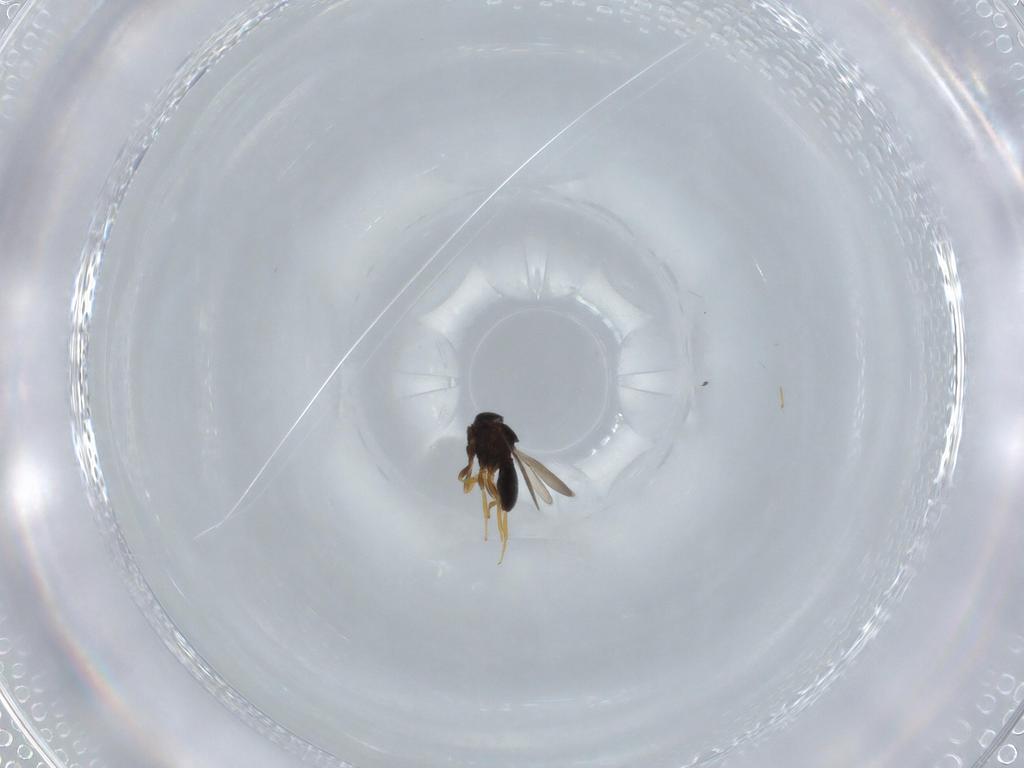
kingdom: Animalia
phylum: Arthropoda
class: Insecta
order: Hymenoptera
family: Scelionidae
